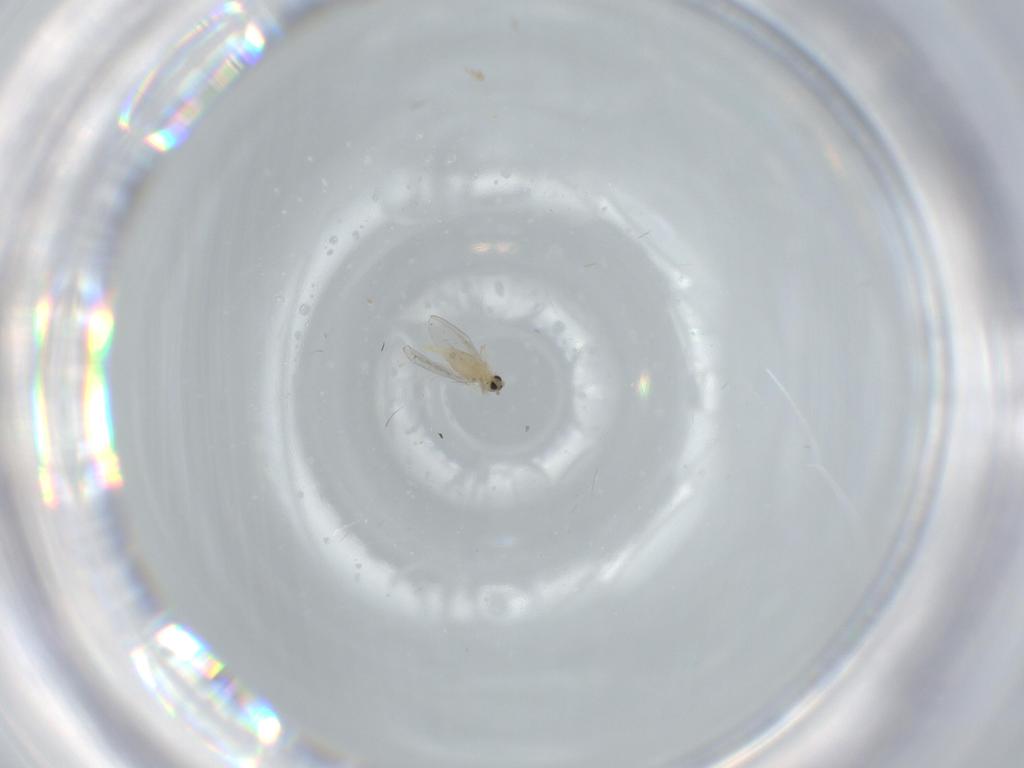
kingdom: Animalia
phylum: Arthropoda
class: Insecta
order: Diptera
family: Cecidomyiidae
